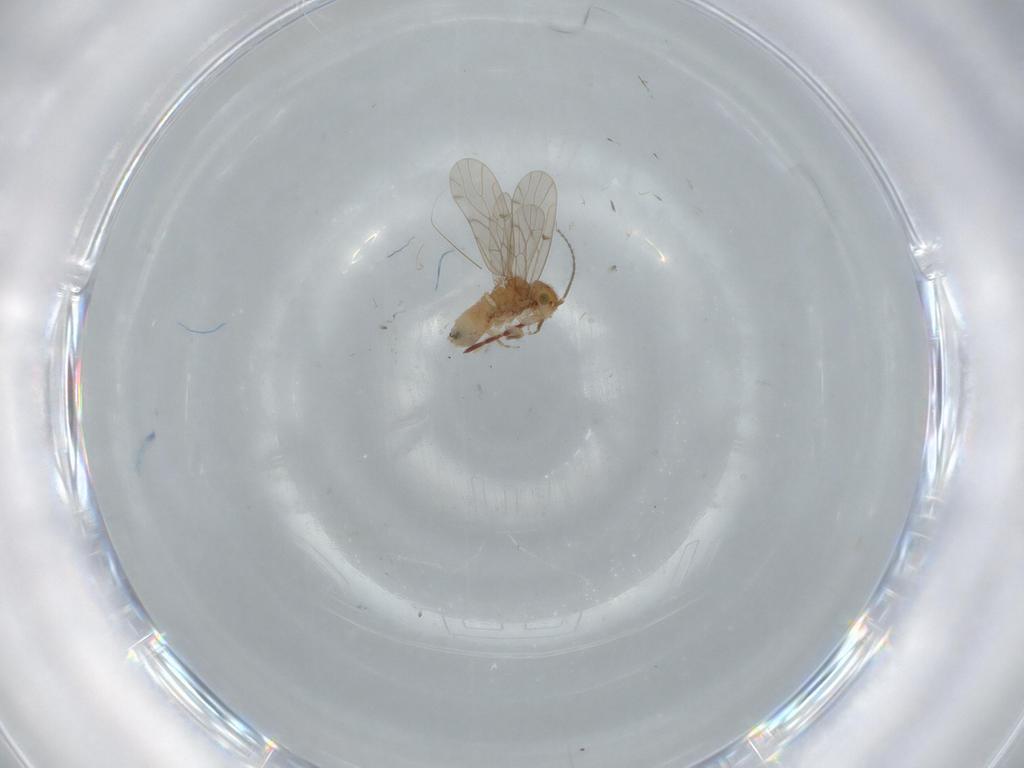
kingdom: Animalia
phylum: Arthropoda
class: Insecta
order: Psocodea
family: Ectopsocidae
